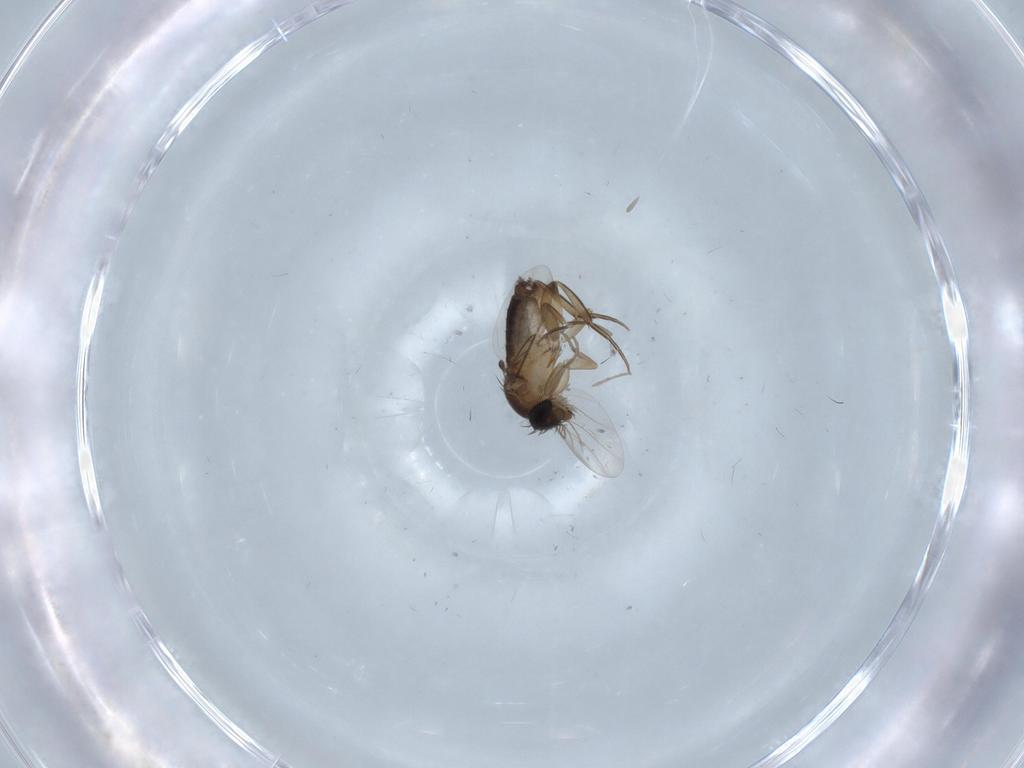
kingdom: Animalia
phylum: Arthropoda
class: Insecta
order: Diptera
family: Phoridae
